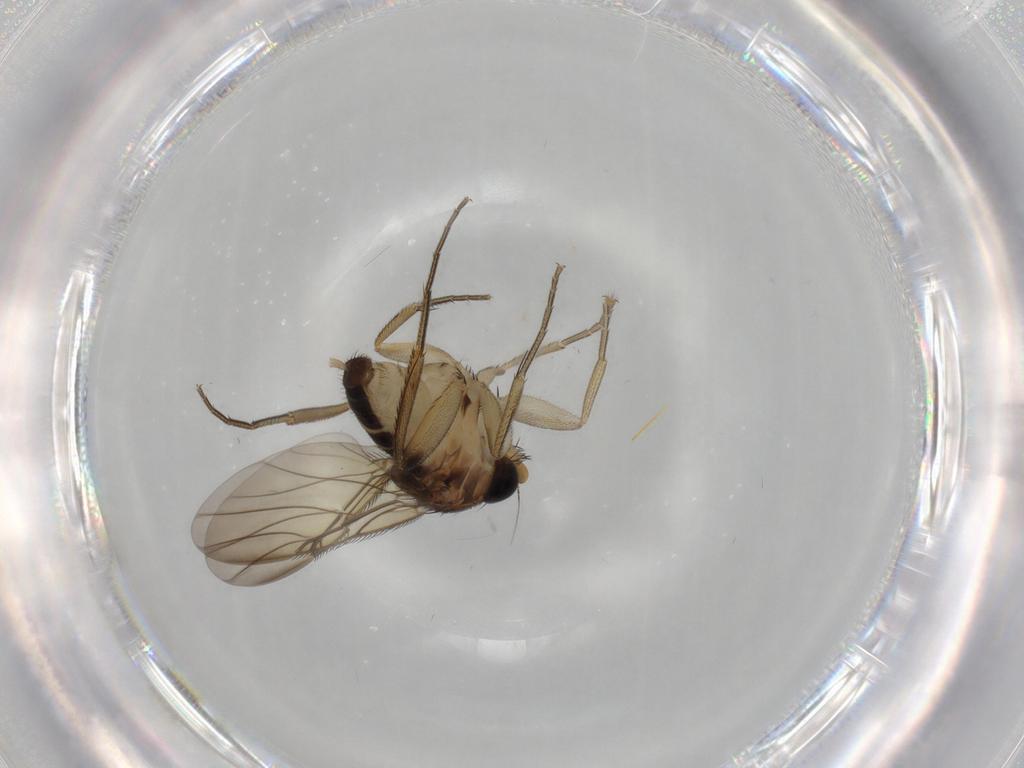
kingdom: Animalia
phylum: Arthropoda
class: Insecta
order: Diptera
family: Phoridae
